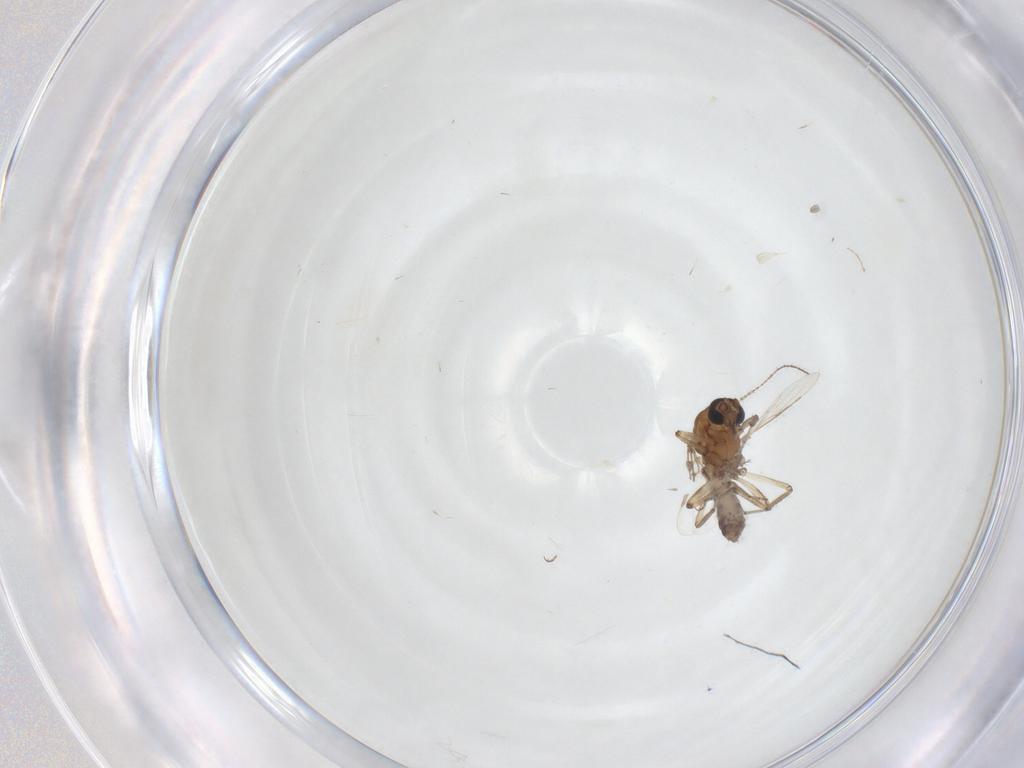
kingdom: Animalia
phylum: Arthropoda
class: Insecta
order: Diptera
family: Ceratopogonidae
